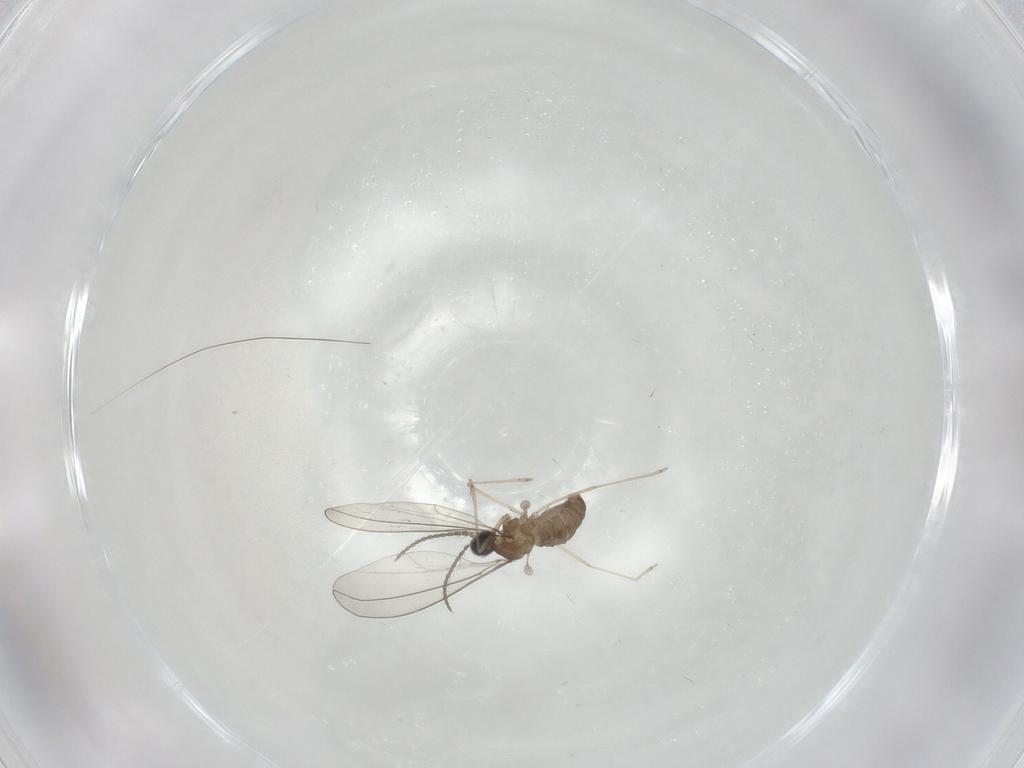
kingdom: Animalia
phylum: Arthropoda
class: Insecta
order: Diptera
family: Cecidomyiidae
